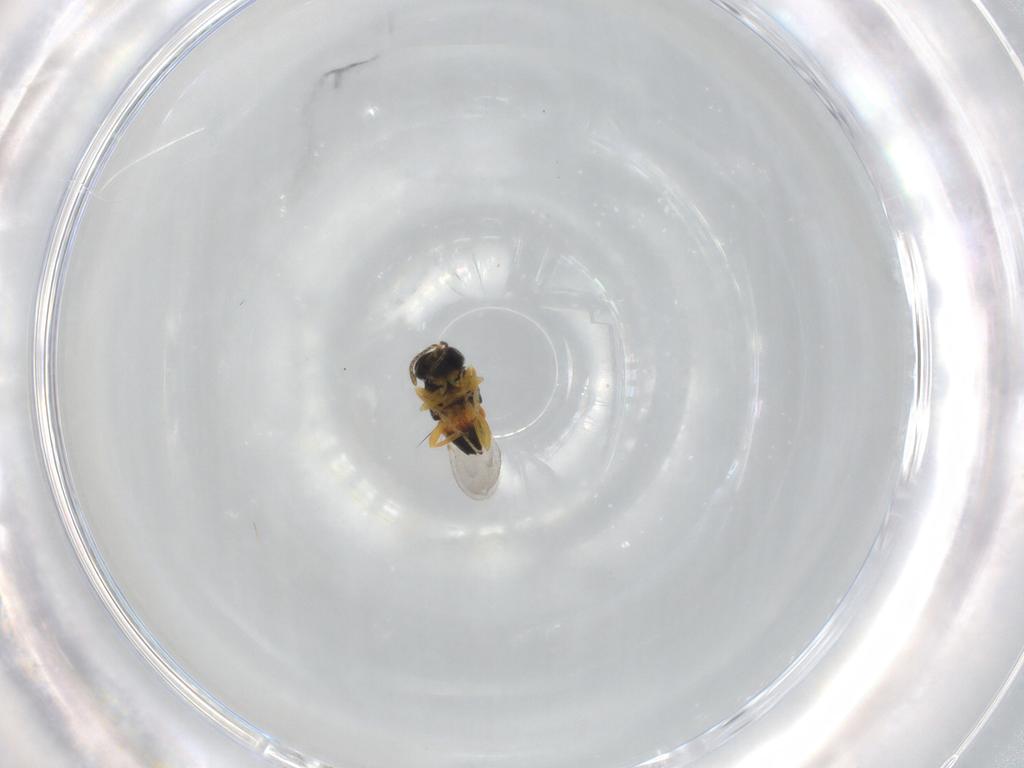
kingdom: Animalia
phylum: Arthropoda
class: Insecta
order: Hymenoptera
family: Encyrtidae
